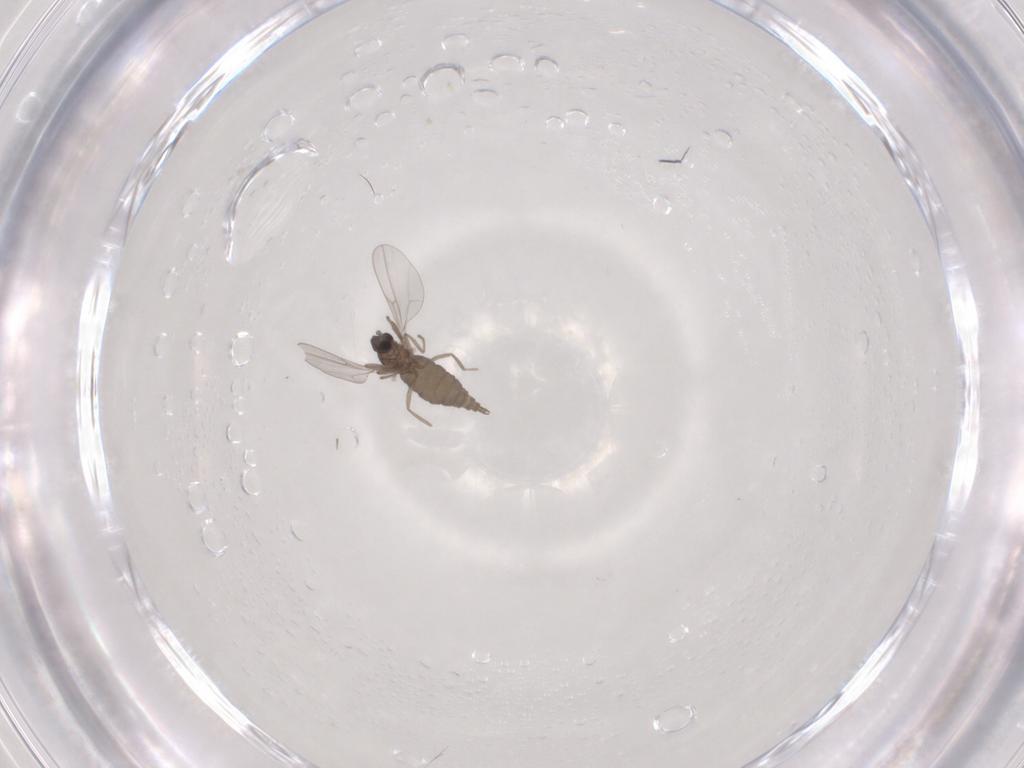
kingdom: Animalia
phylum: Arthropoda
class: Insecta
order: Diptera
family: Cecidomyiidae
